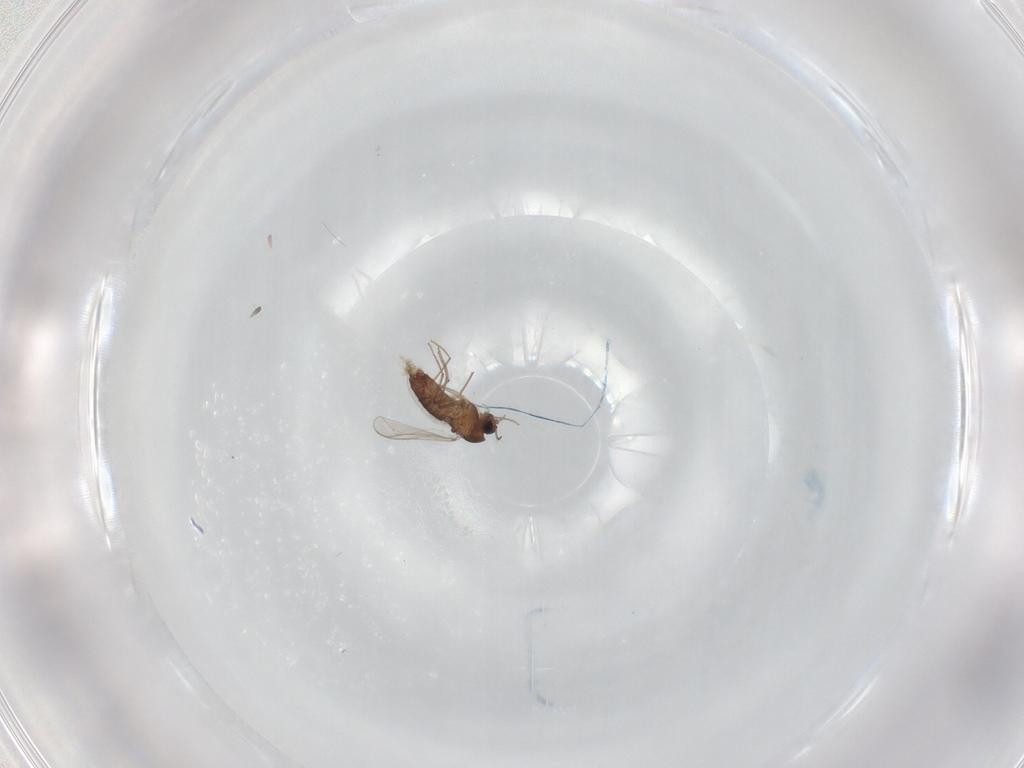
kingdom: Animalia
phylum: Arthropoda
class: Insecta
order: Diptera
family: Chironomidae
